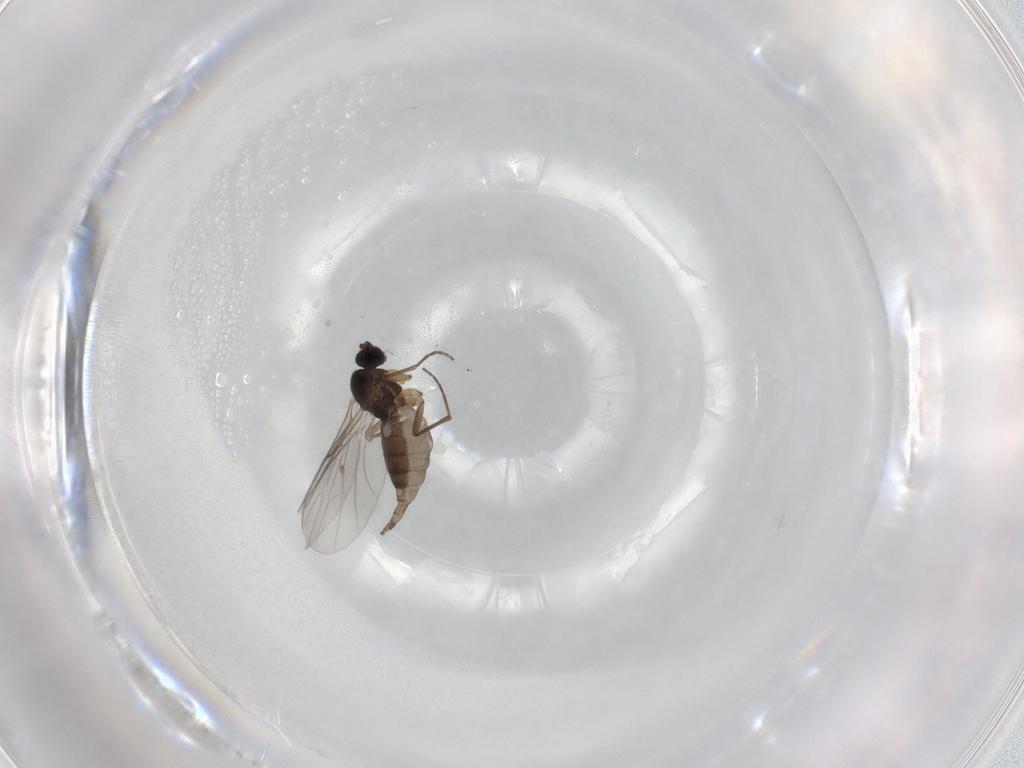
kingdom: Animalia
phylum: Arthropoda
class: Insecta
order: Diptera
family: Sciaridae
